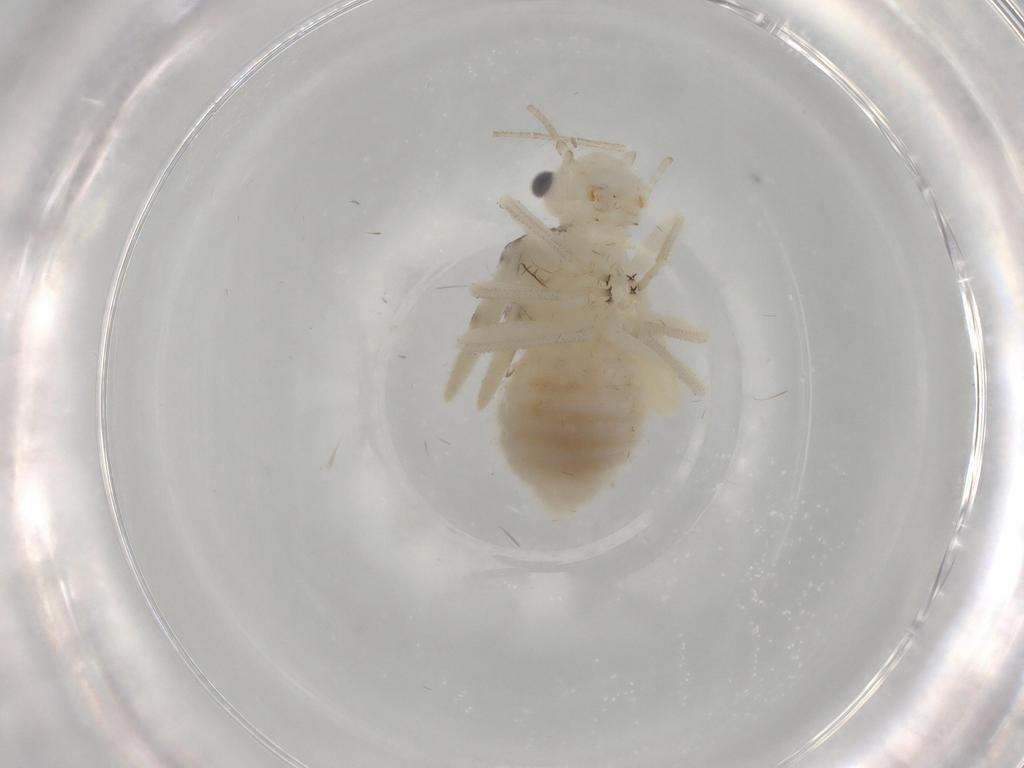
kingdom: Animalia
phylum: Arthropoda
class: Insecta
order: Psocodea
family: Amphipsocidae
